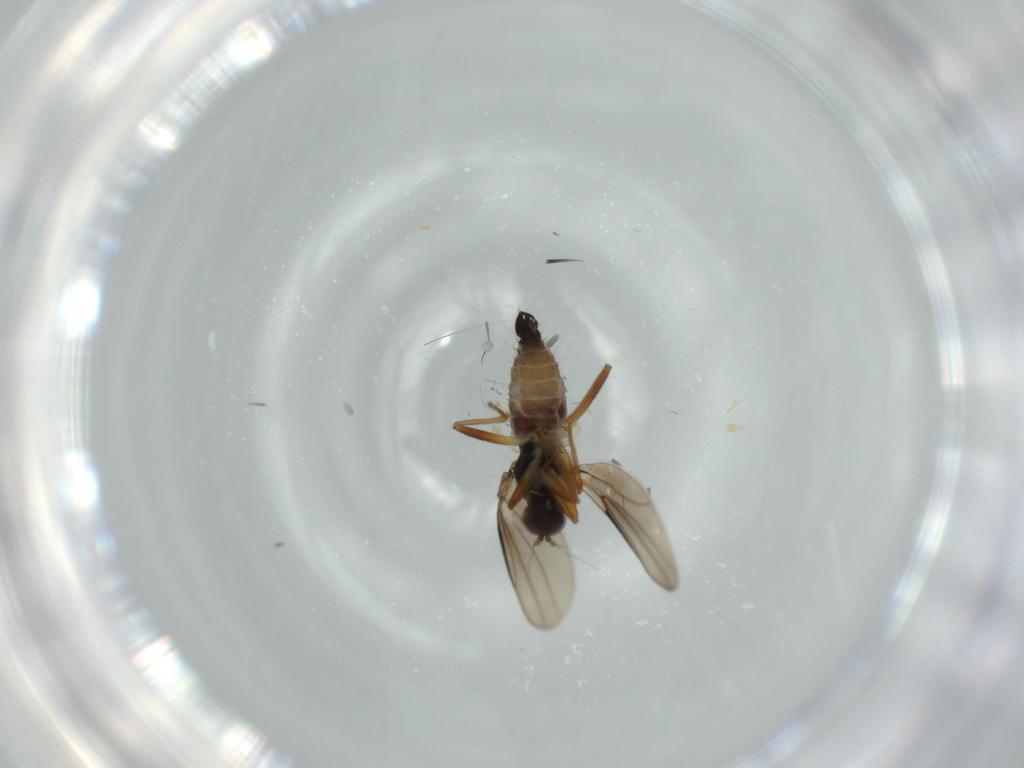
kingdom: Animalia
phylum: Arthropoda
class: Insecta
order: Diptera
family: Hybotidae
